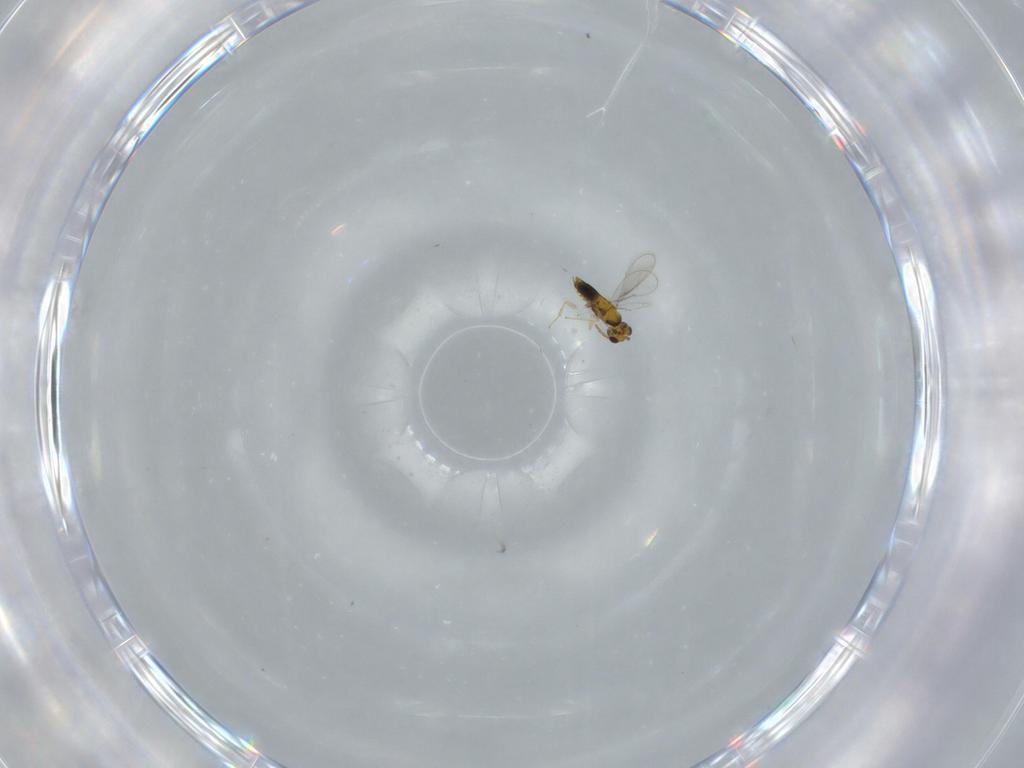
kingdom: Animalia
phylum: Arthropoda
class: Insecta
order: Hymenoptera
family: Aphelinidae
